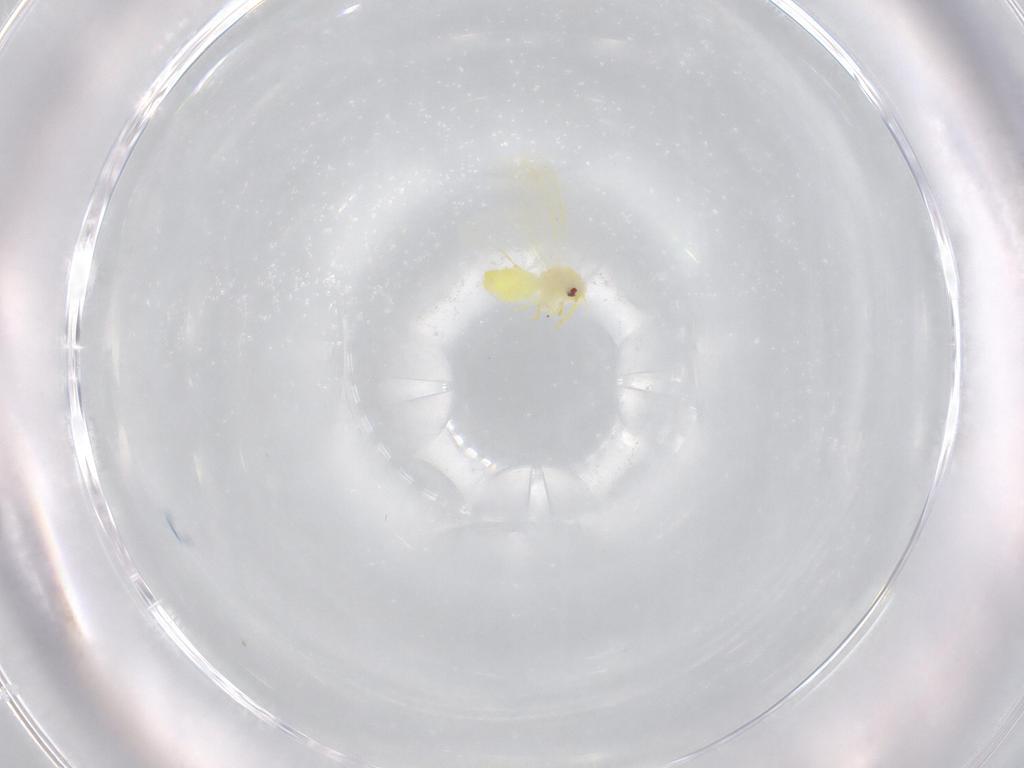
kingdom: Animalia
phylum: Arthropoda
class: Insecta
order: Hemiptera
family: Aleyrodidae
